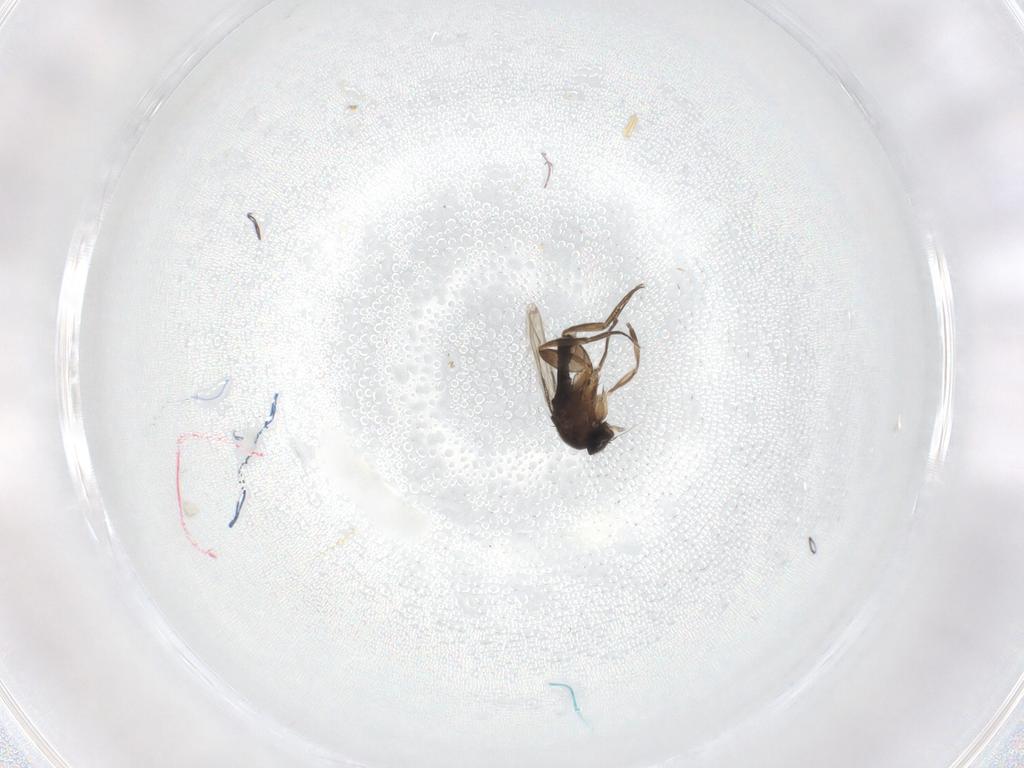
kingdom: Animalia
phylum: Arthropoda
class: Insecta
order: Diptera
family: Phoridae
